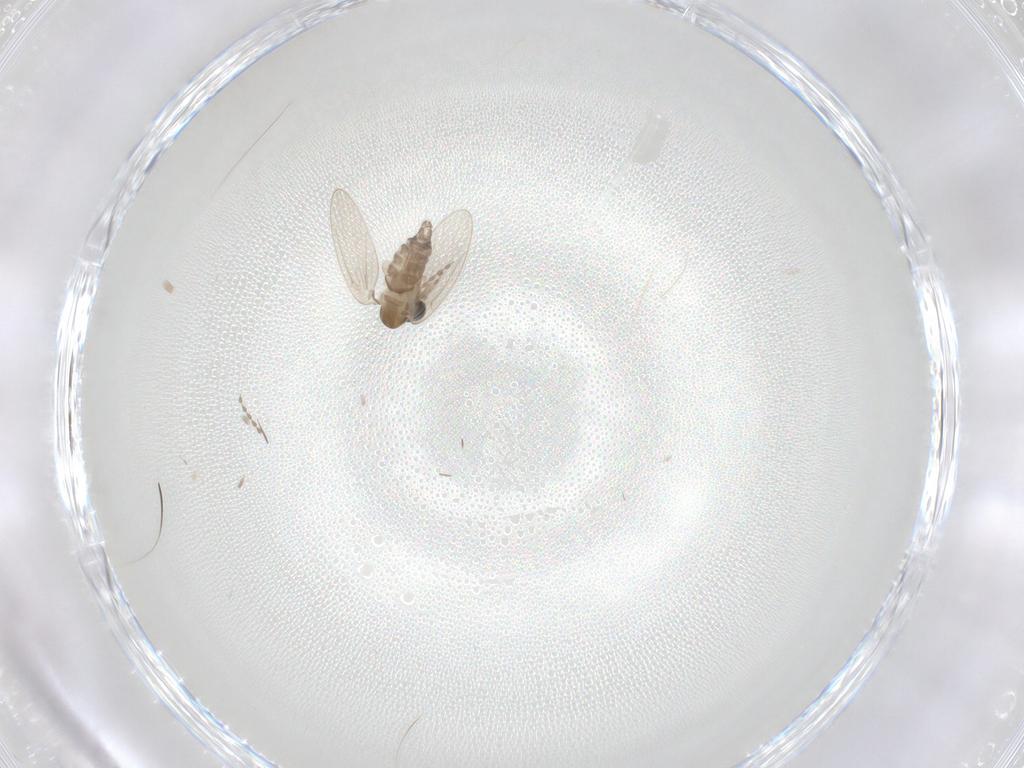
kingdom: Animalia
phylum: Arthropoda
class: Insecta
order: Diptera
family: Psychodidae
